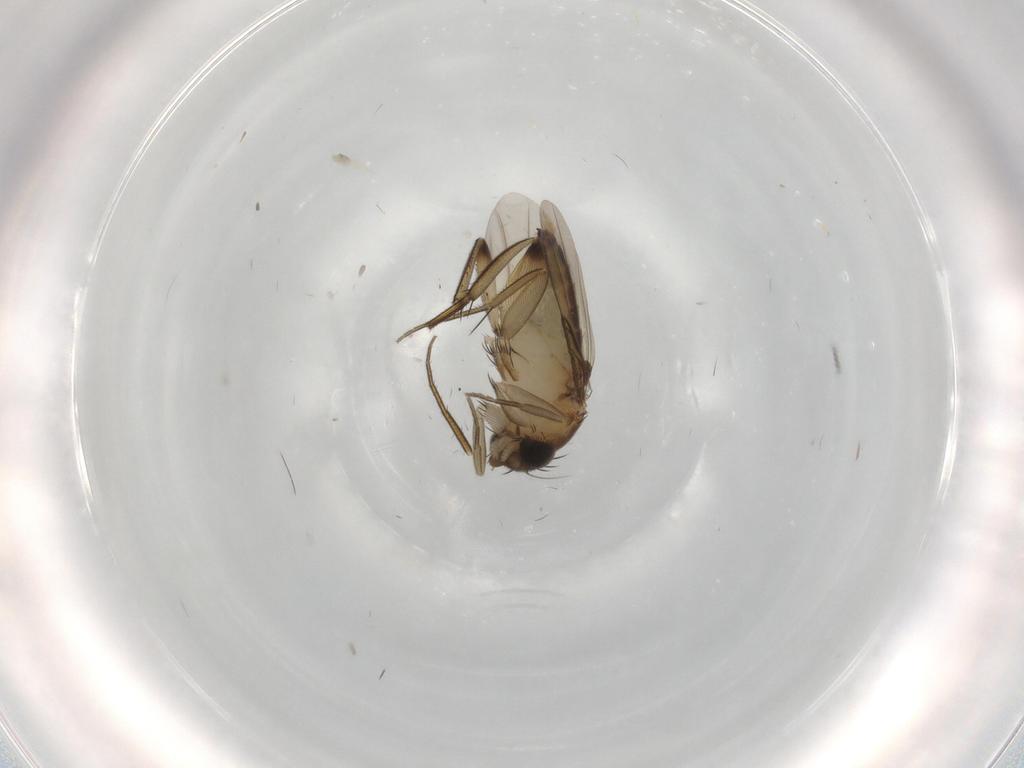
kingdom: Animalia
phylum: Arthropoda
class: Insecta
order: Diptera
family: Phoridae
